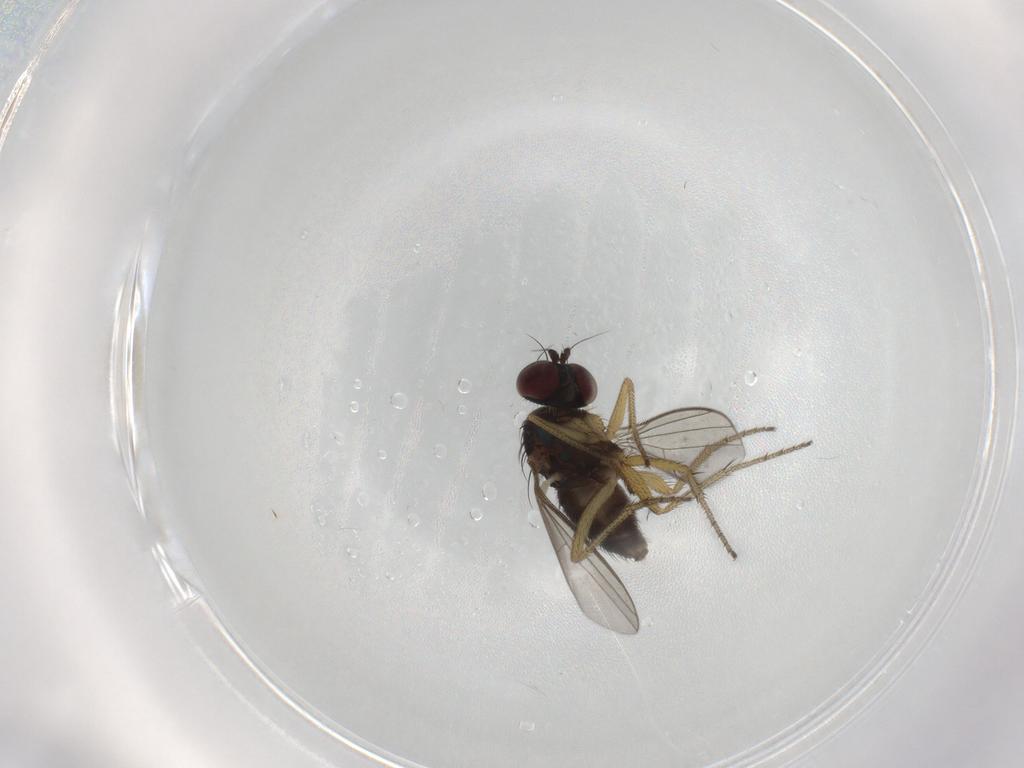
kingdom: Animalia
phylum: Arthropoda
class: Insecta
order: Diptera
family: Dolichopodidae
